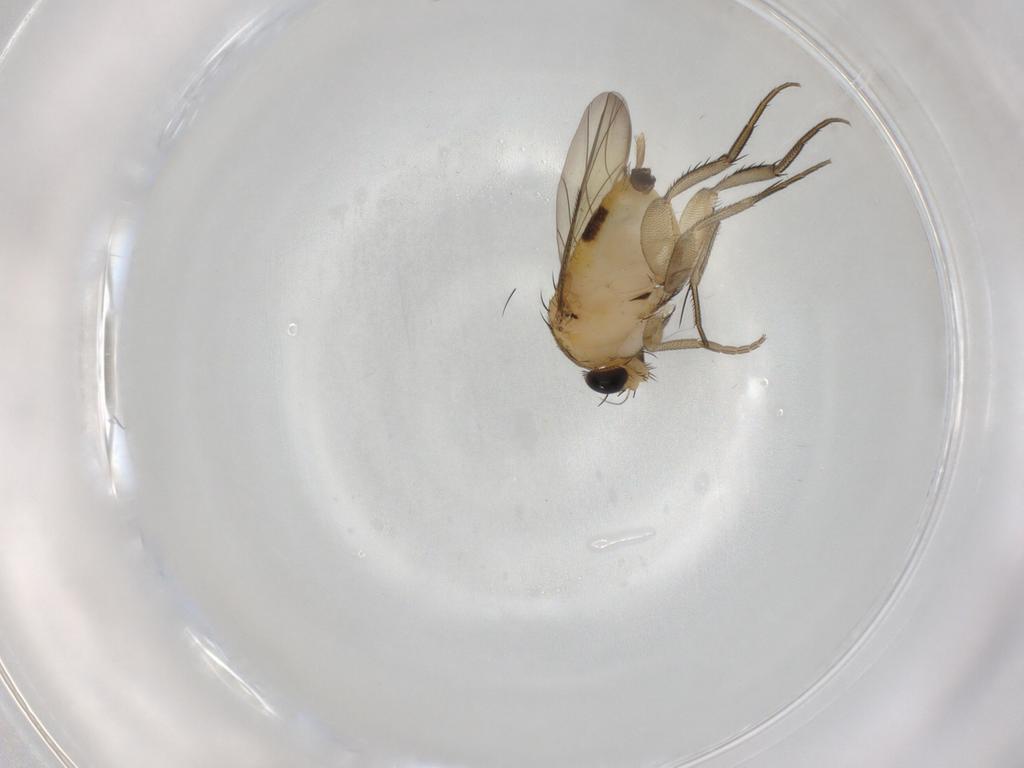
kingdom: Animalia
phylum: Arthropoda
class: Insecta
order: Diptera
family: Phoridae
